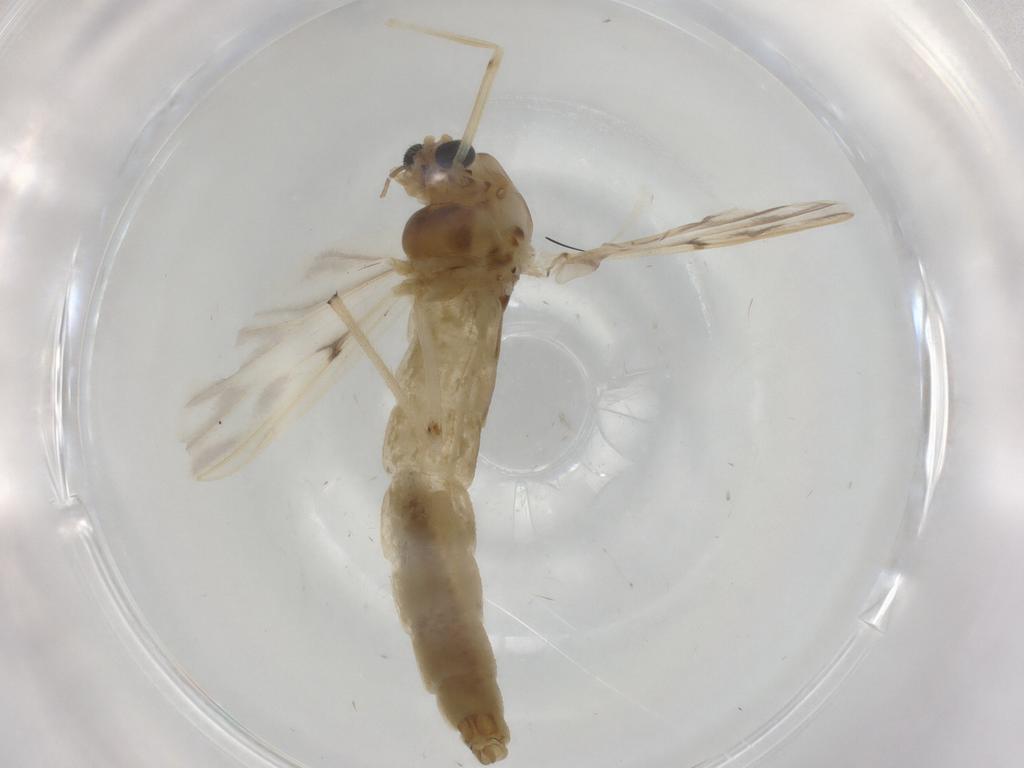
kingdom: Animalia
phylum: Arthropoda
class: Insecta
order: Diptera
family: Chironomidae
